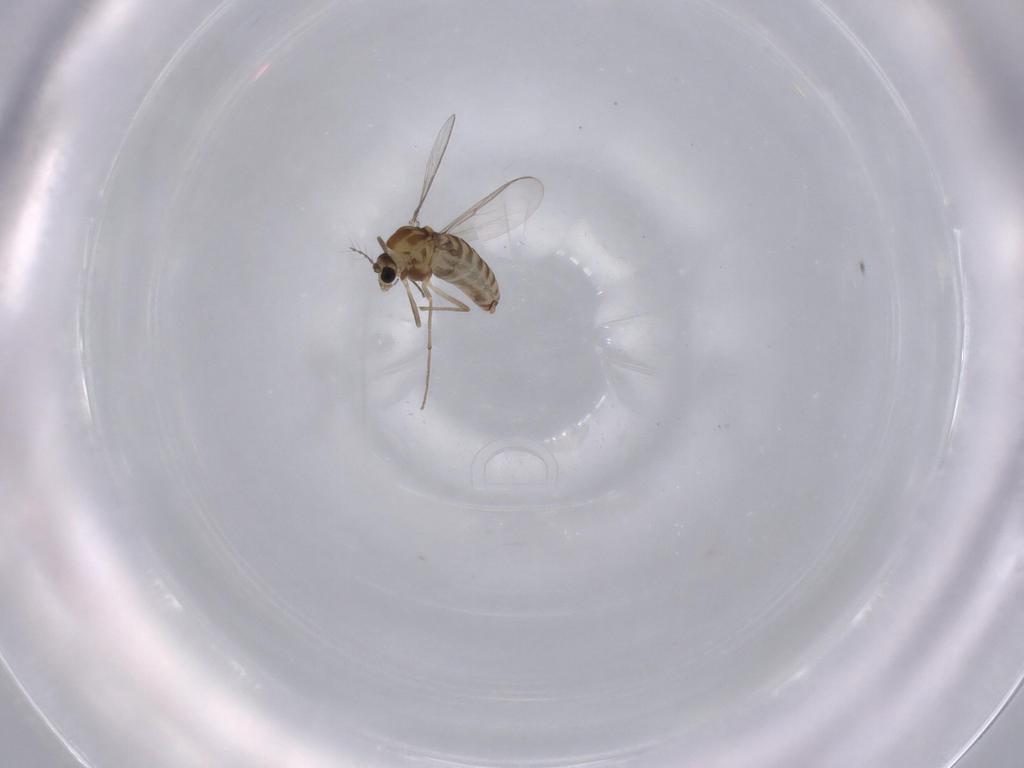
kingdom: Animalia
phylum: Arthropoda
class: Insecta
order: Diptera
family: Chironomidae
